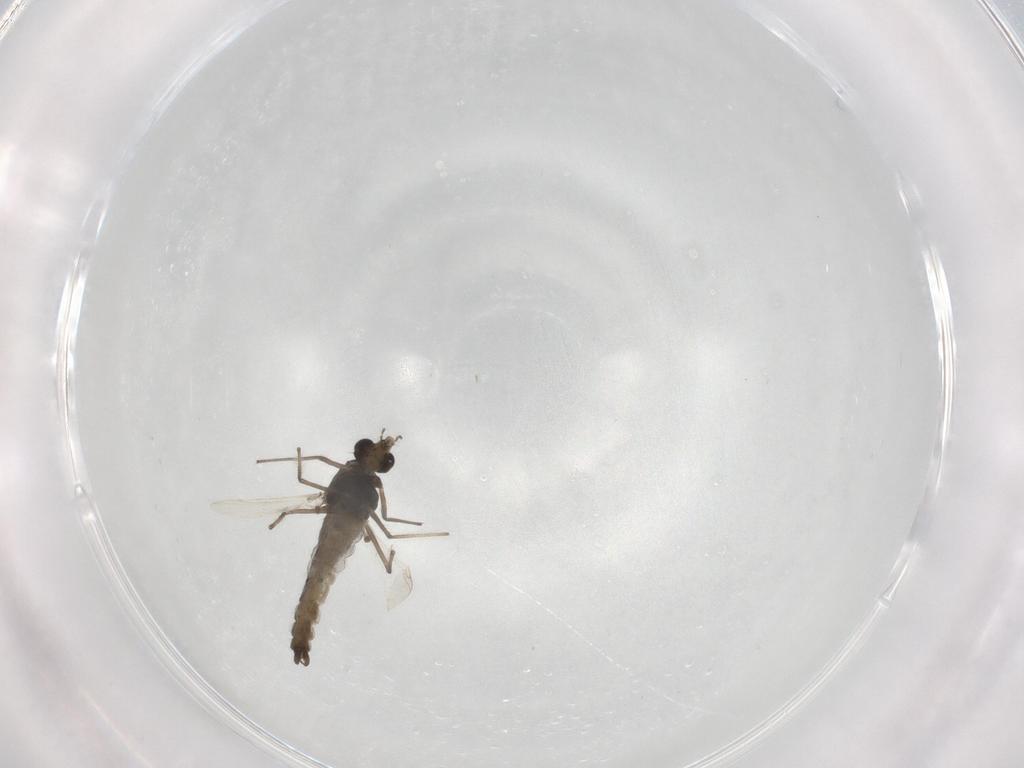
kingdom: Animalia
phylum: Arthropoda
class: Insecta
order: Diptera
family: Chironomidae
